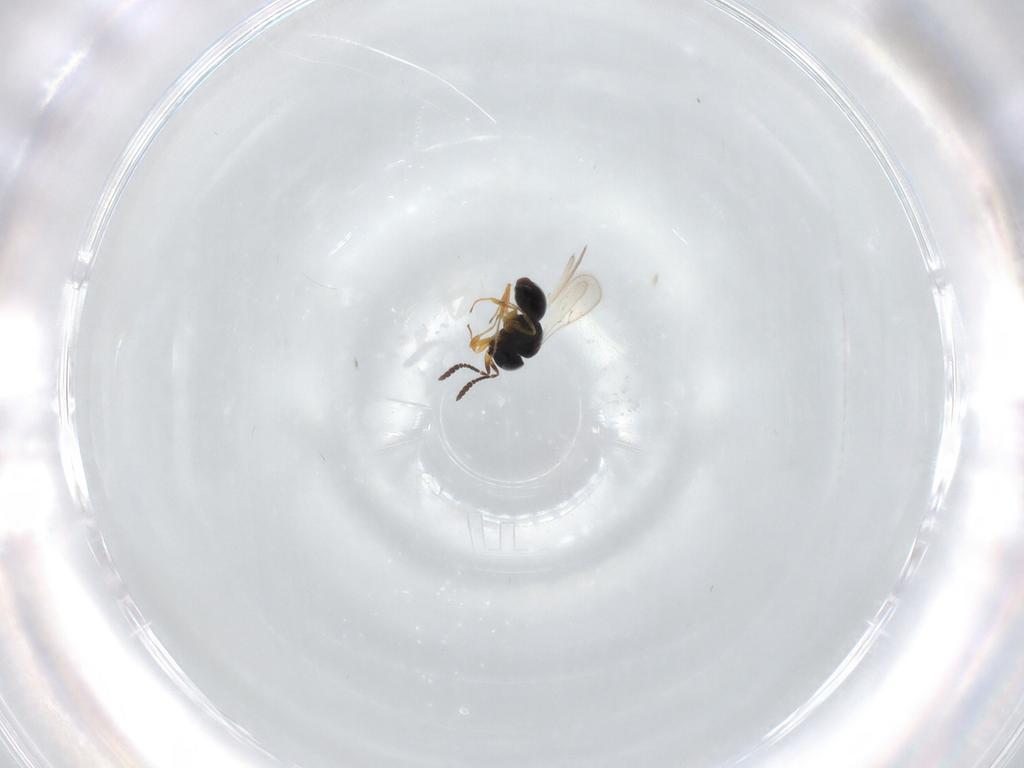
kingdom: Animalia
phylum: Arthropoda
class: Insecta
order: Hymenoptera
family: Scelionidae
